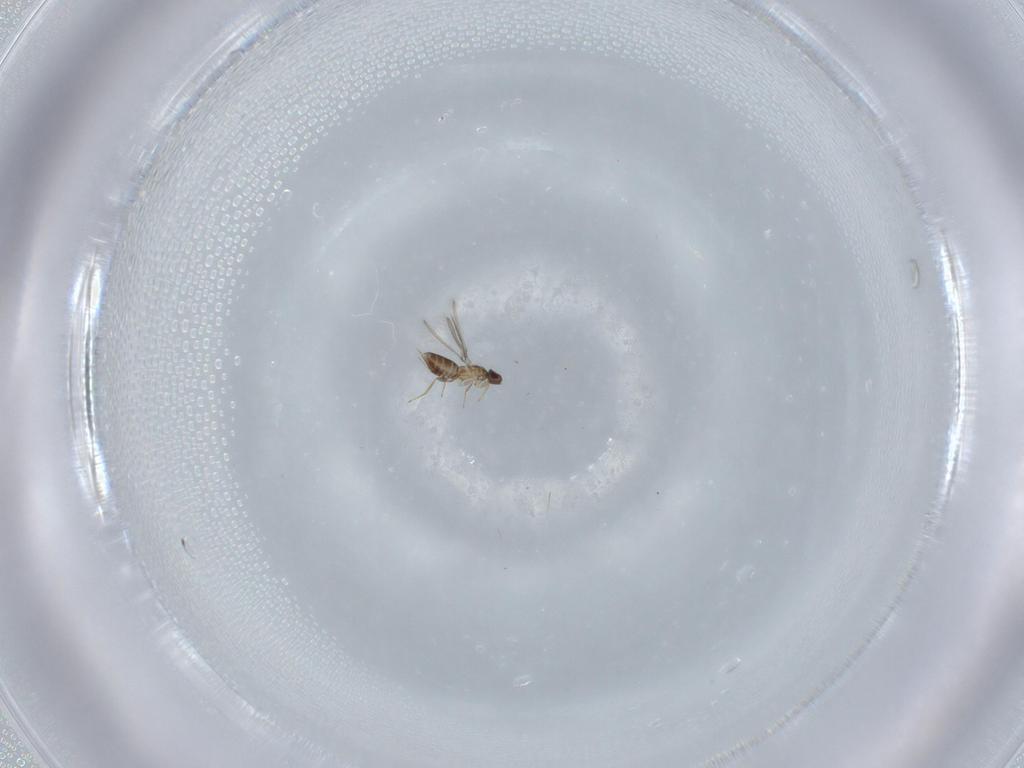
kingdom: Animalia
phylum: Arthropoda
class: Insecta
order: Hymenoptera
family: Mymaridae
